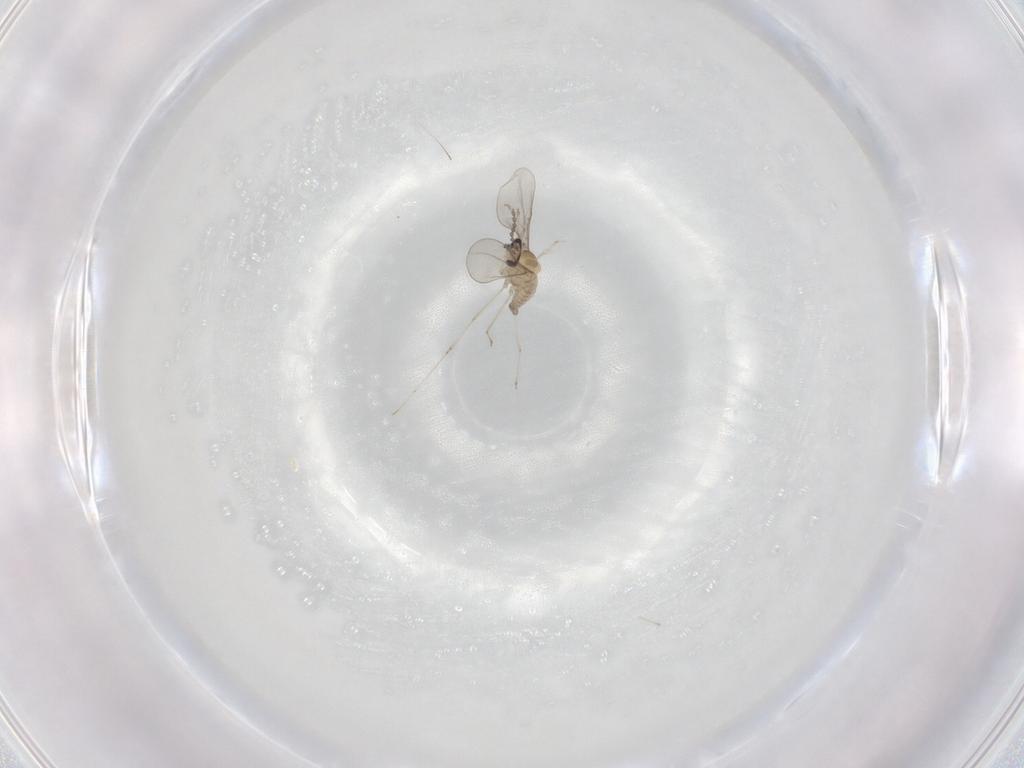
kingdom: Animalia
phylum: Arthropoda
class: Insecta
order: Diptera
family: Cecidomyiidae
